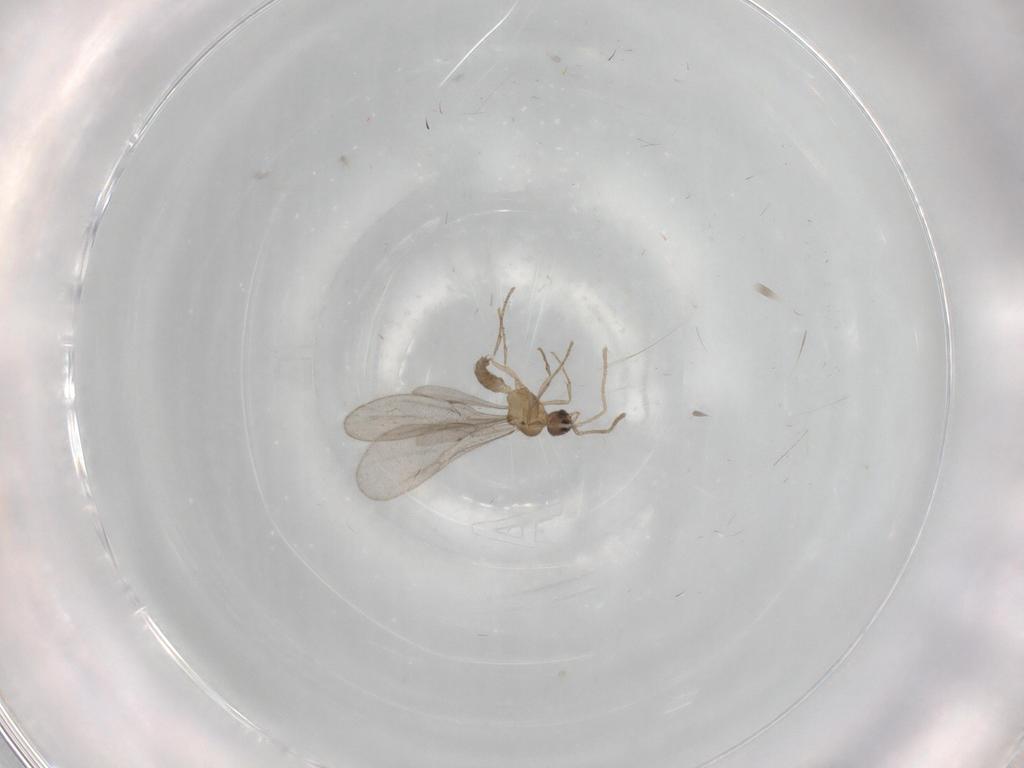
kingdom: Animalia
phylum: Arthropoda
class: Insecta
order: Hymenoptera
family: Formicidae
